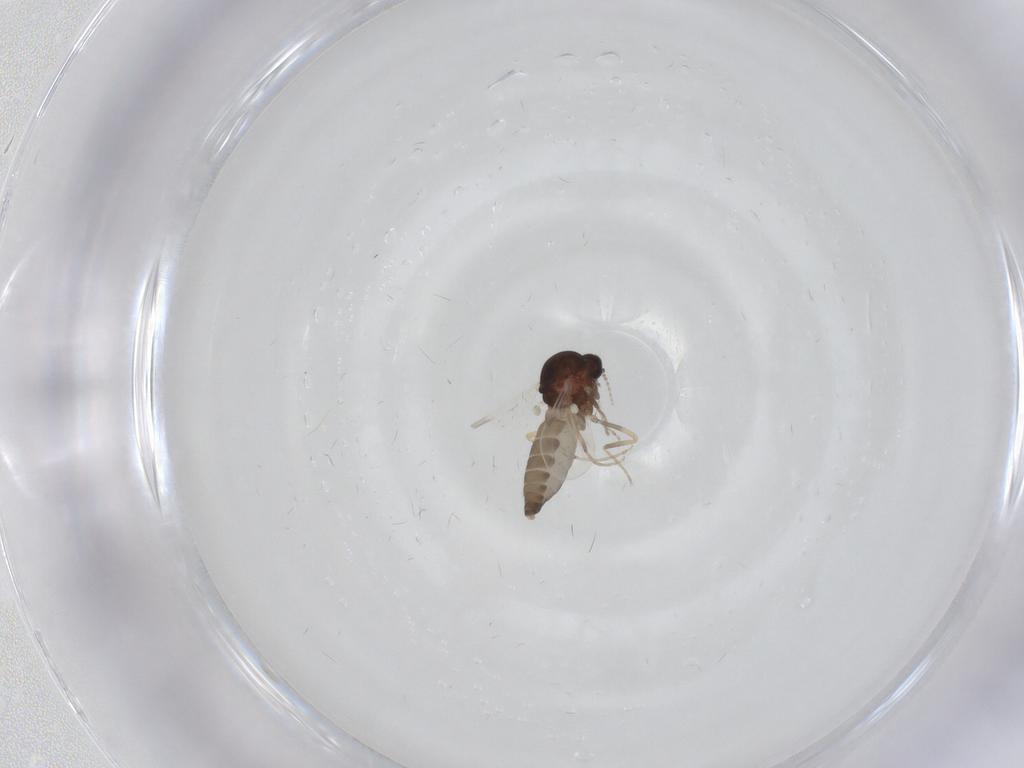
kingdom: Animalia
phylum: Arthropoda
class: Insecta
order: Diptera
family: Ceratopogonidae
